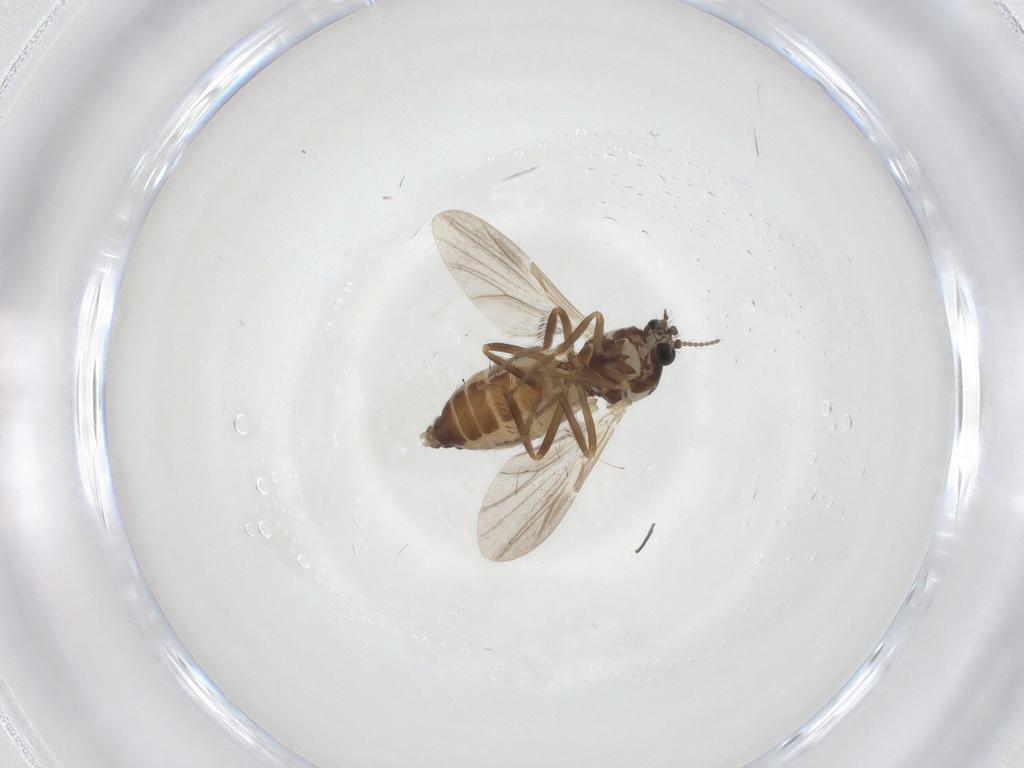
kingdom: Animalia
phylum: Arthropoda
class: Insecta
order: Diptera
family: Ceratopogonidae
